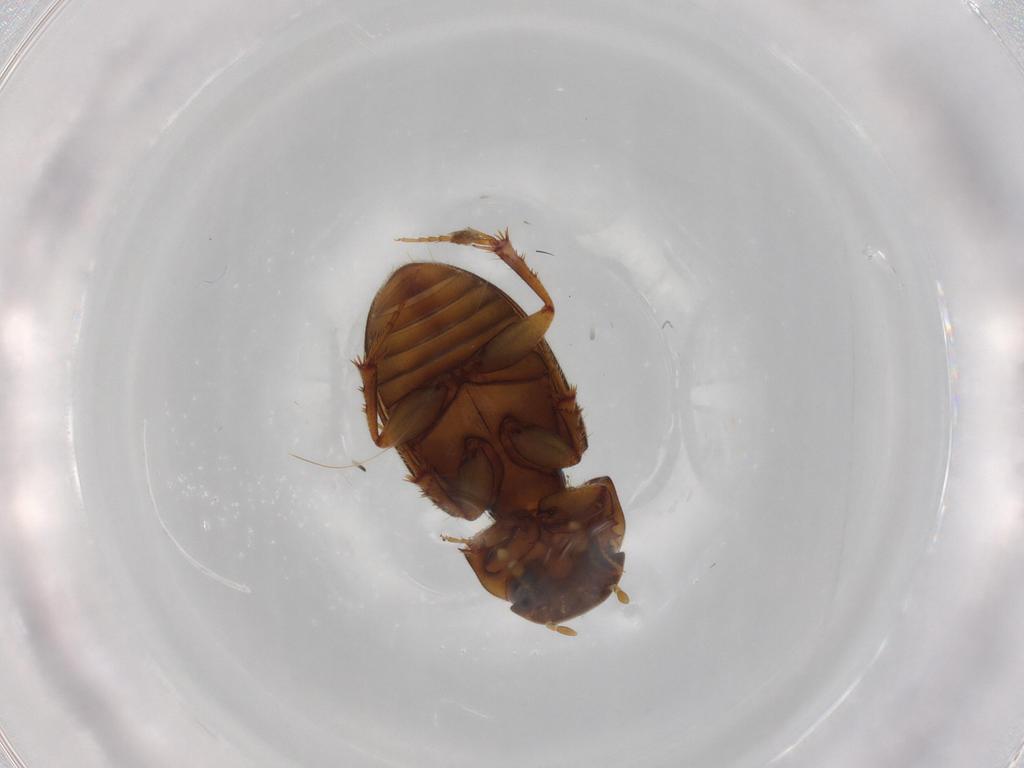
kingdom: Animalia
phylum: Arthropoda
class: Insecta
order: Coleoptera
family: Scarabaeidae
